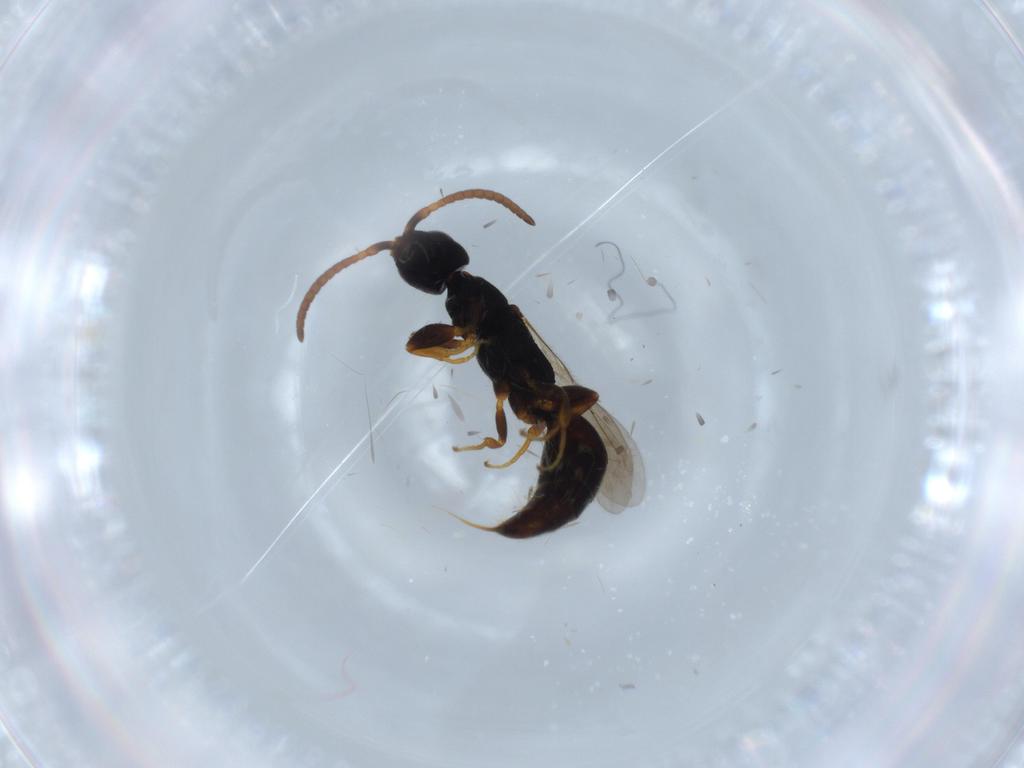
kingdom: Animalia
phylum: Arthropoda
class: Insecta
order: Hymenoptera
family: Bethylidae
